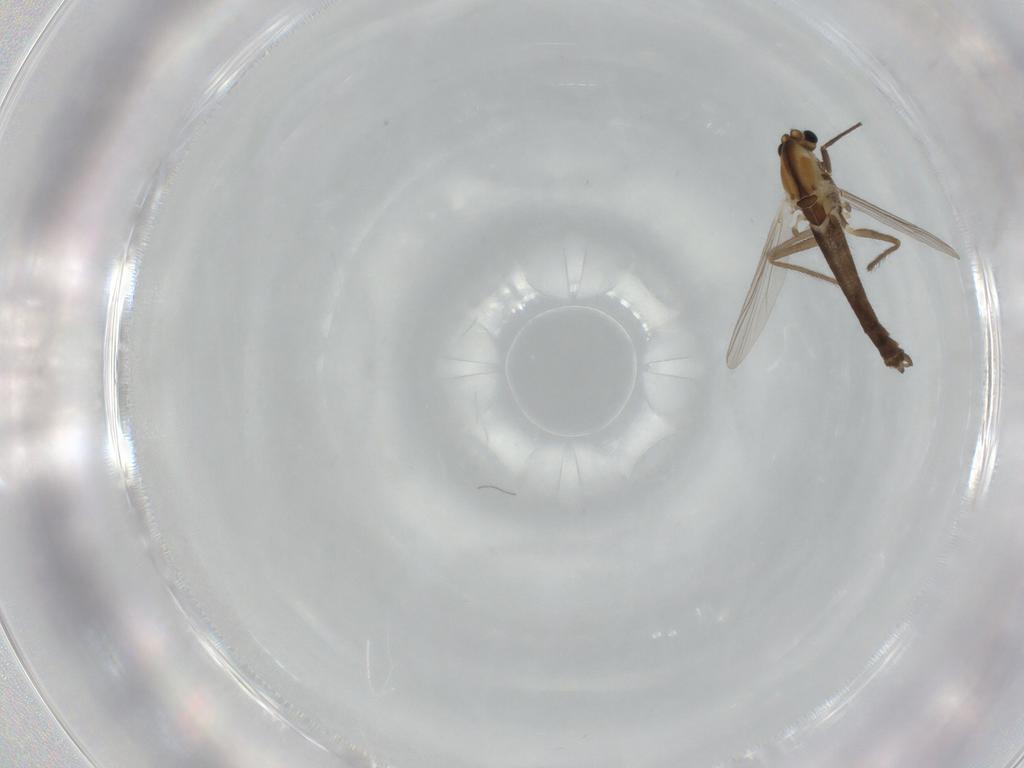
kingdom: Animalia
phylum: Arthropoda
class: Insecta
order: Diptera
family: Chironomidae
